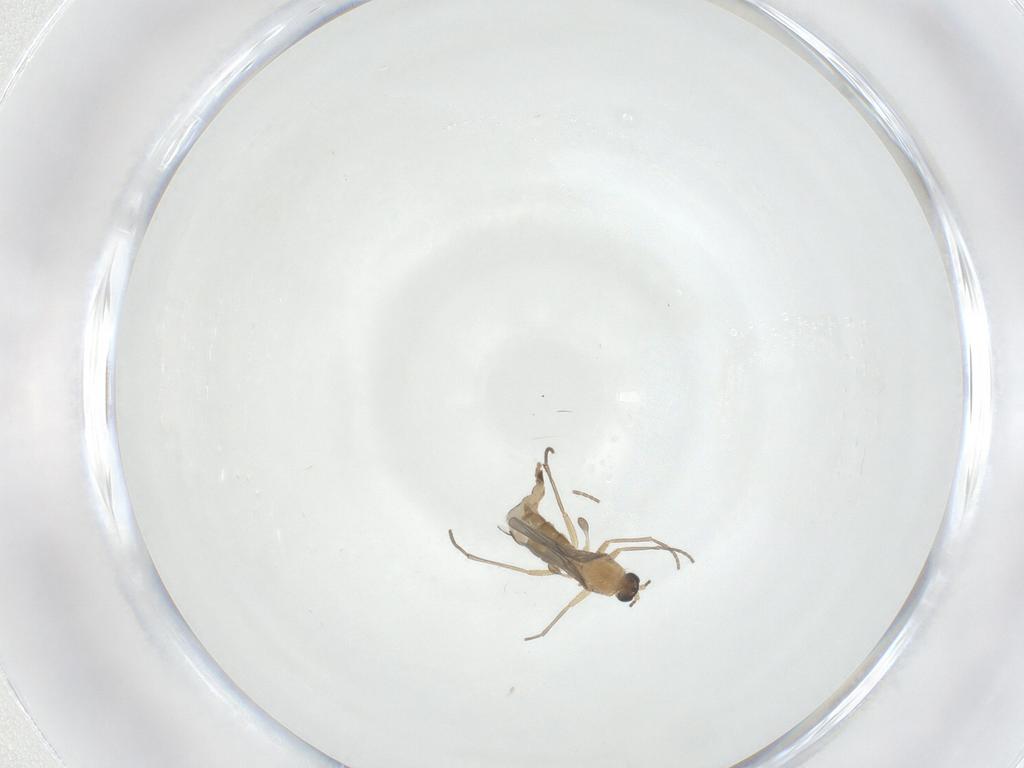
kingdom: Animalia
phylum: Arthropoda
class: Insecta
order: Diptera
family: Sciaridae
